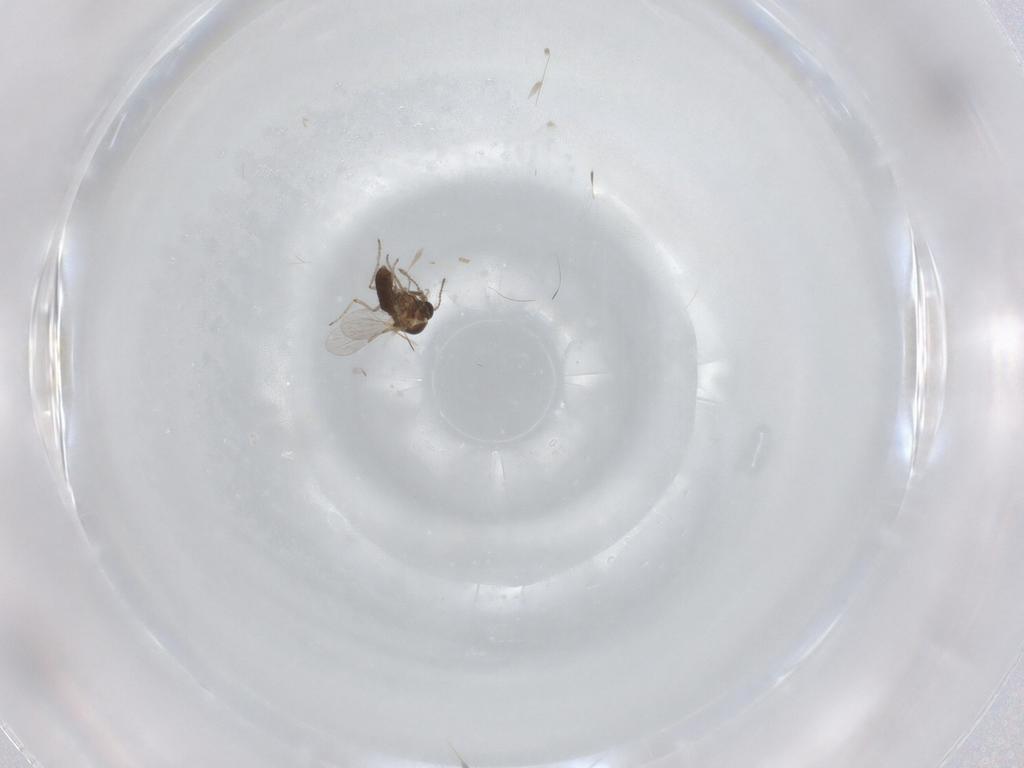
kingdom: Animalia
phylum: Arthropoda
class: Insecta
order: Diptera
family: Ceratopogonidae
